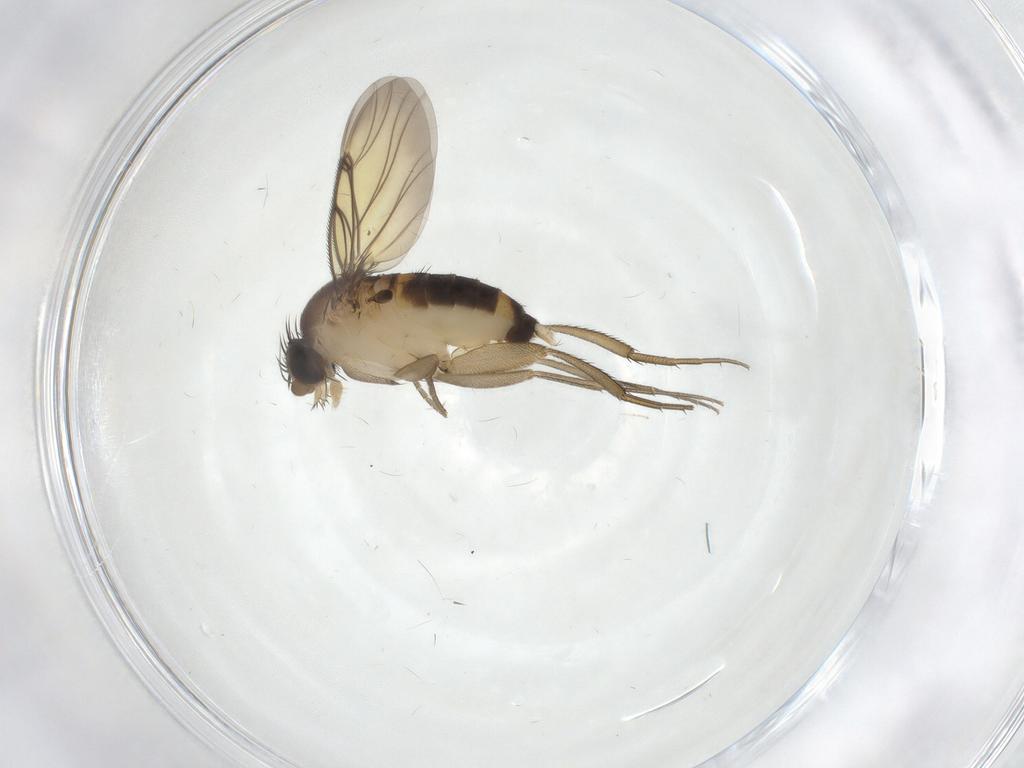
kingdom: Animalia
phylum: Arthropoda
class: Insecta
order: Diptera
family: Cecidomyiidae
